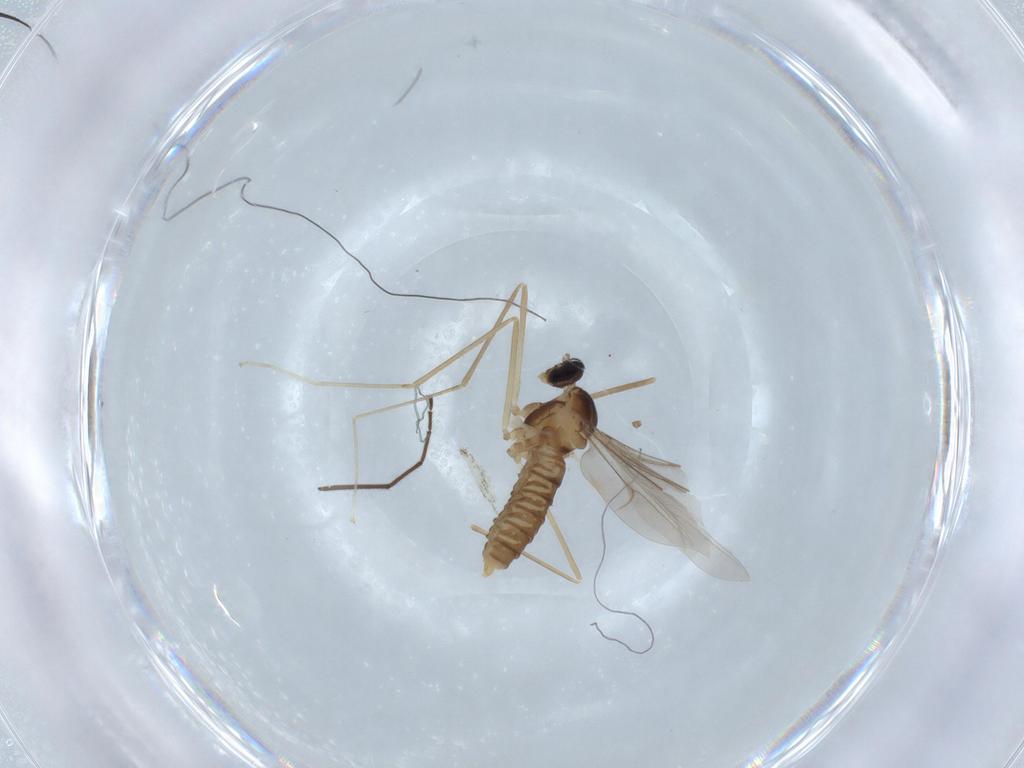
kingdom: Animalia
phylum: Arthropoda
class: Insecta
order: Diptera
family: Cecidomyiidae
